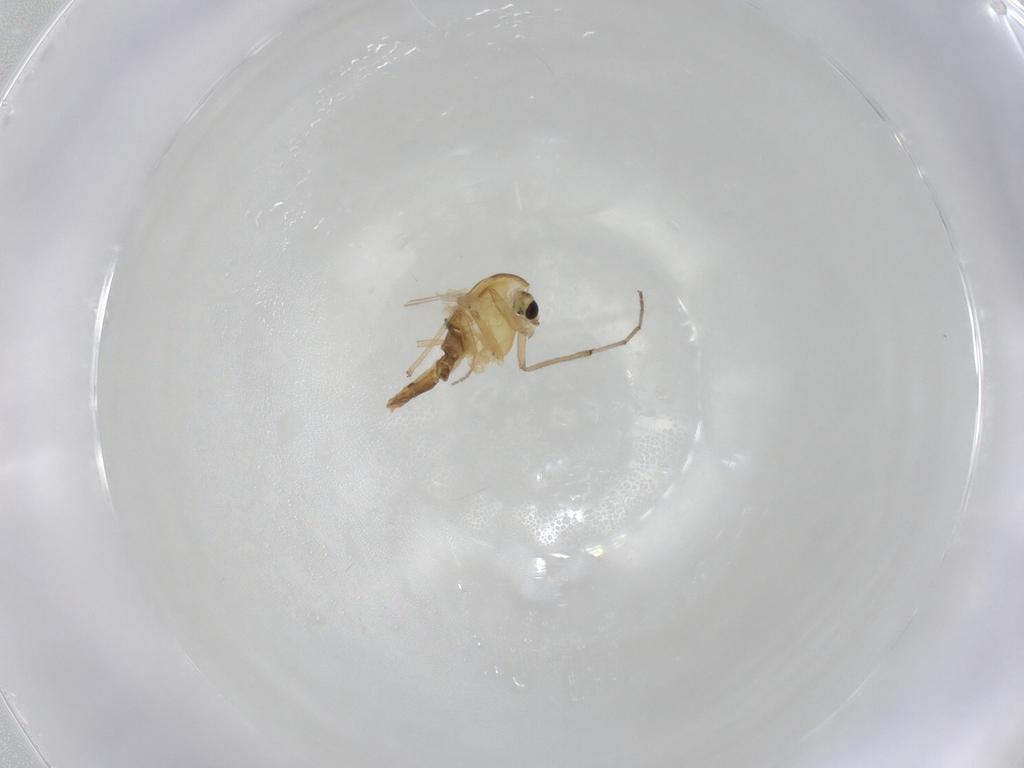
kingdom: Animalia
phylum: Arthropoda
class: Insecta
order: Diptera
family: Chironomidae
